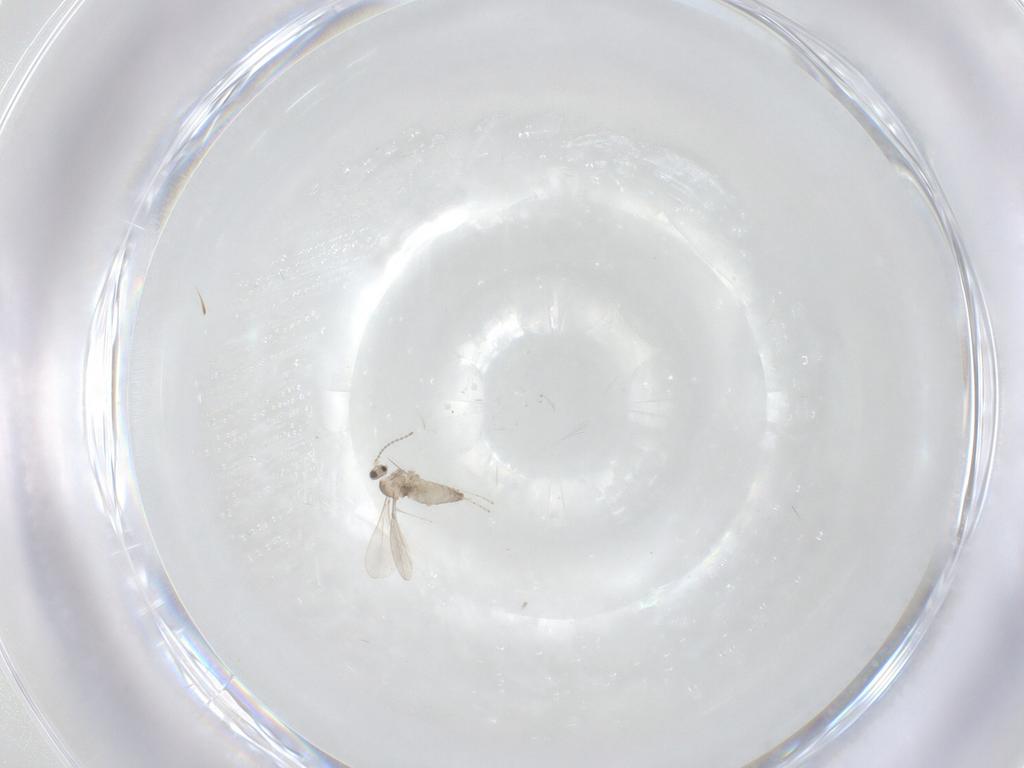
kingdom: Animalia
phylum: Arthropoda
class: Insecta
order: Diptera
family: Cecidomyiidae
